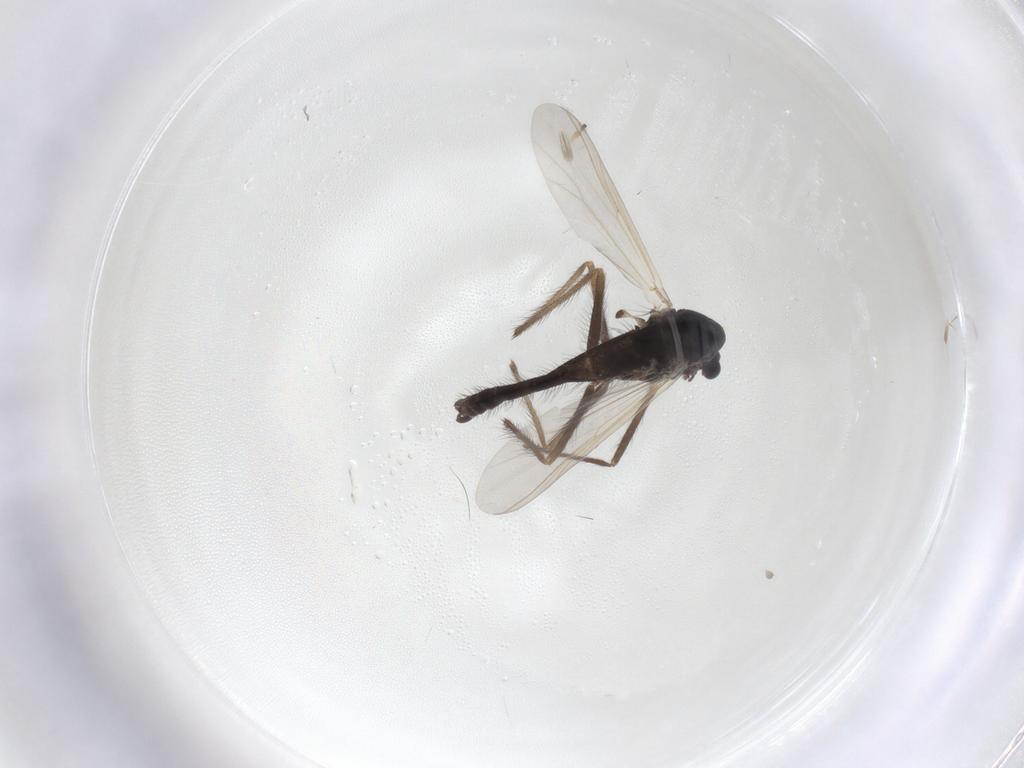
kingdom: Animalia
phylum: Arthropoda
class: Insecta
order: Diptera
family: Chironomidae
